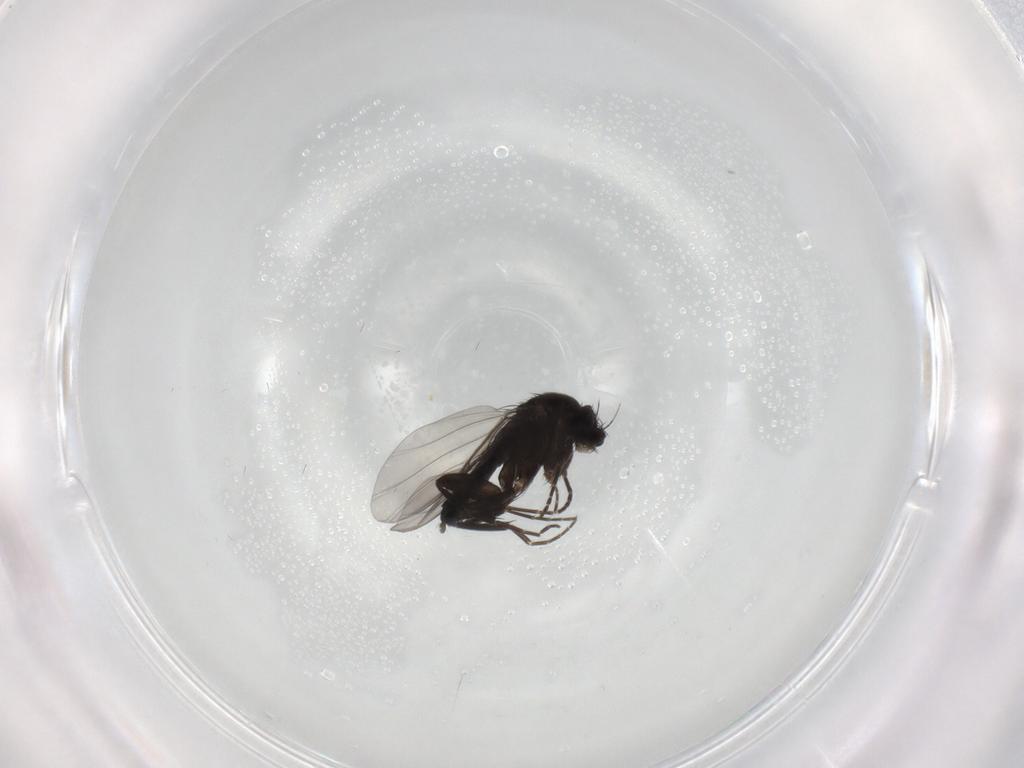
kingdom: Animalia
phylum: Arthropoda
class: Insecta
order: Diptera
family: Phoridae
